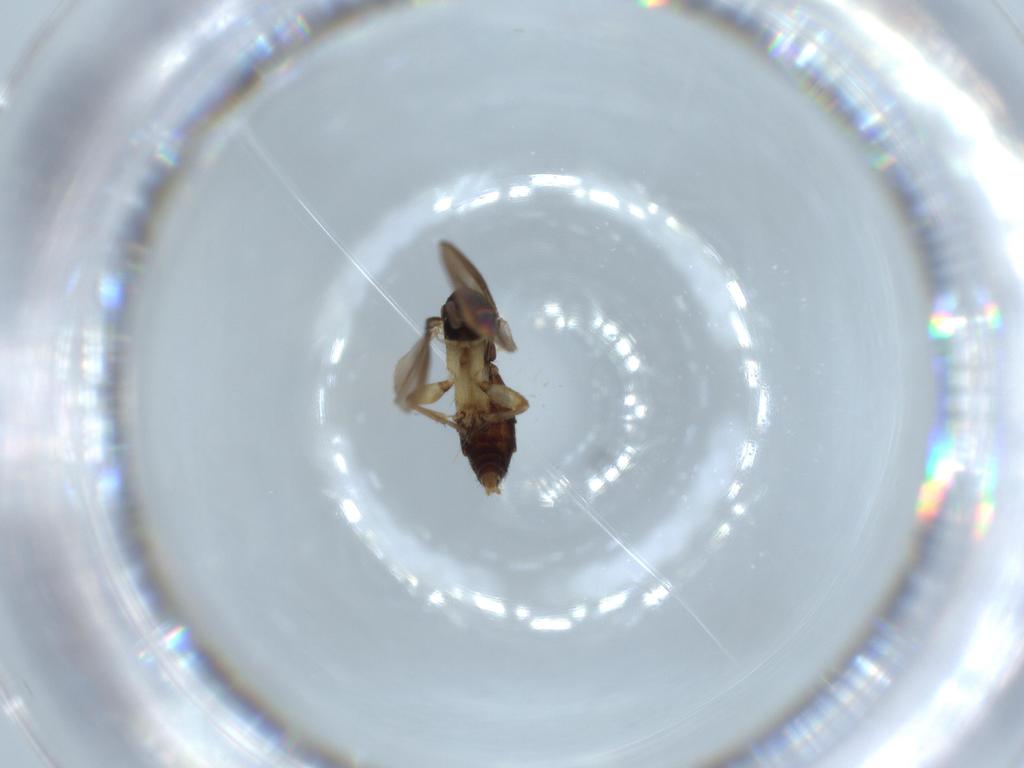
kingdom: Animalia
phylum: Arthropoda
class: Insecta
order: Diptera
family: Mycetophilidae
